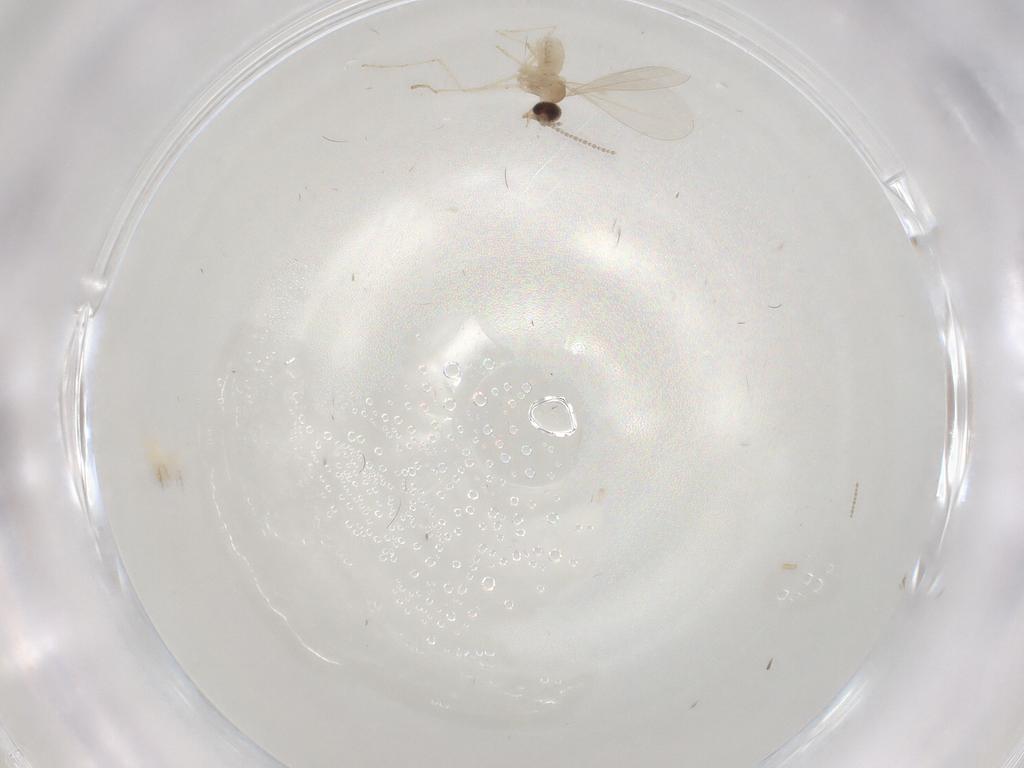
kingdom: Animalia
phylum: Arthropoda
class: Insecta
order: Diptera
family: Cecidomyiidae
